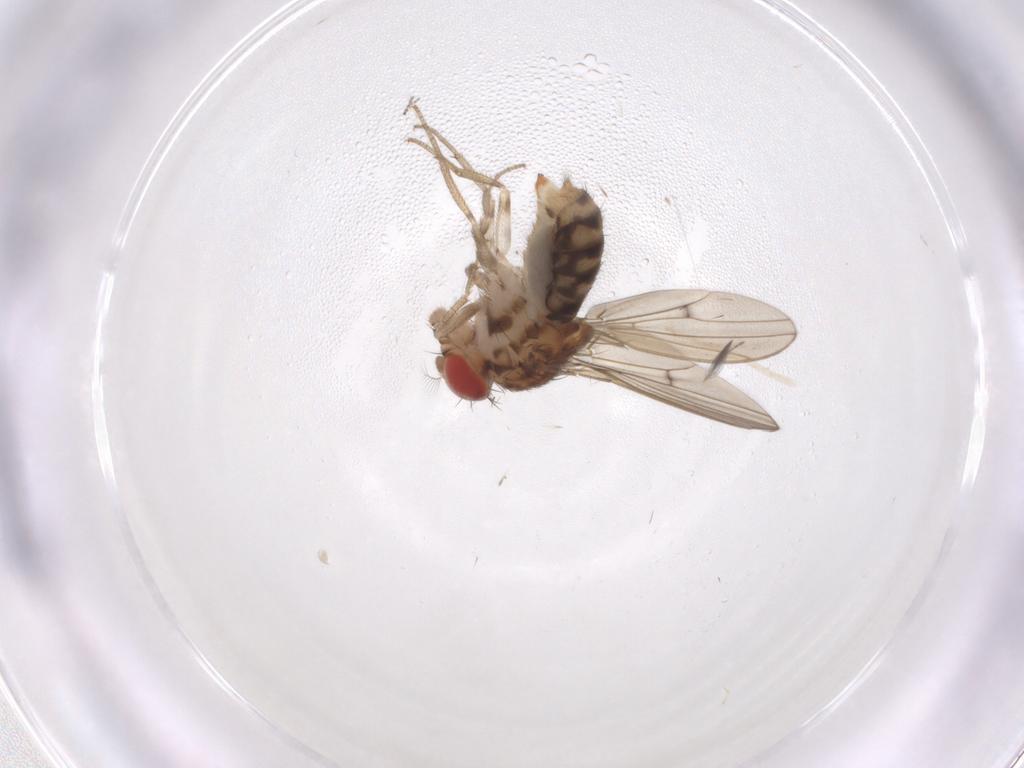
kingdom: Animalia
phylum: Arthropoda
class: Insecta
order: Diptera
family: Drosophilidae
